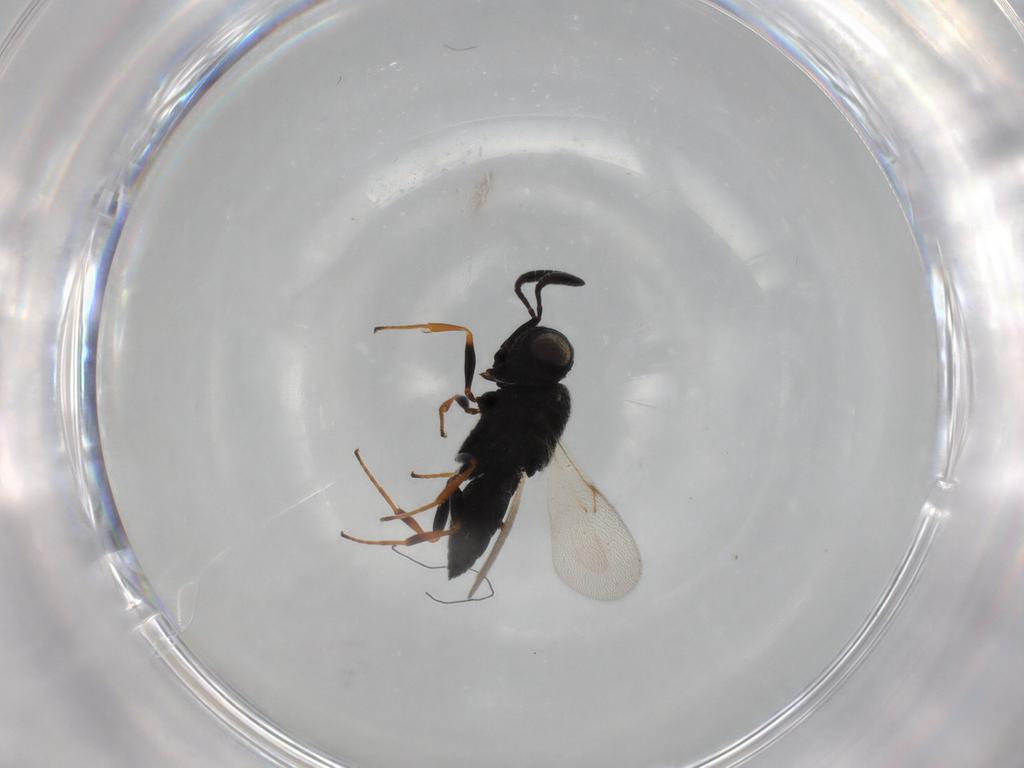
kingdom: Animalia
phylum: Arthropoda
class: Insecta
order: Hymenoptera
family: Scelionidae
